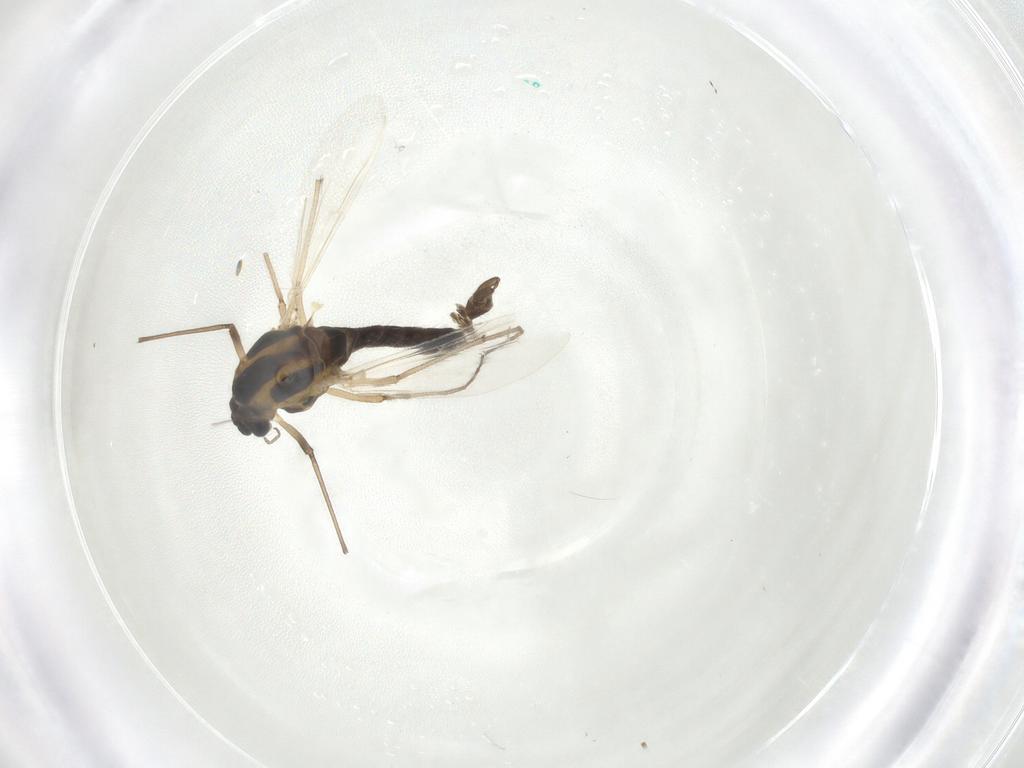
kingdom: Animalia
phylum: Arthropoda
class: Insecta
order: Diptera
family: Chironomidae
